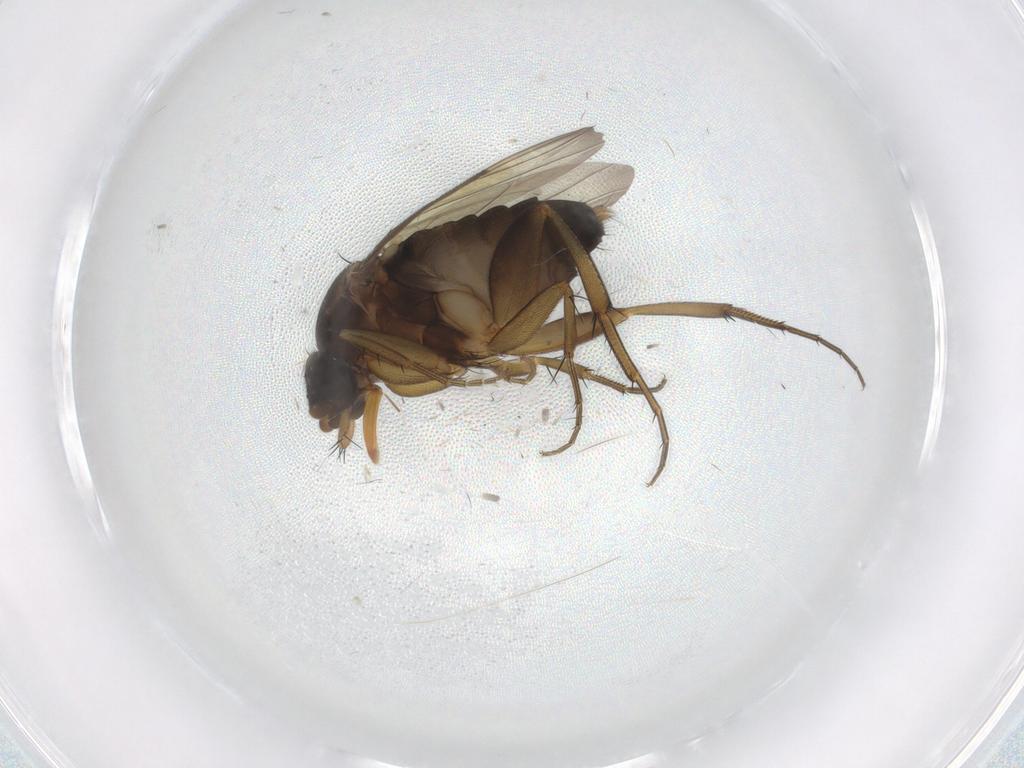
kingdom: Animalia
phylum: Arthropoda
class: Insecta
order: Diptera
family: Phoridae
